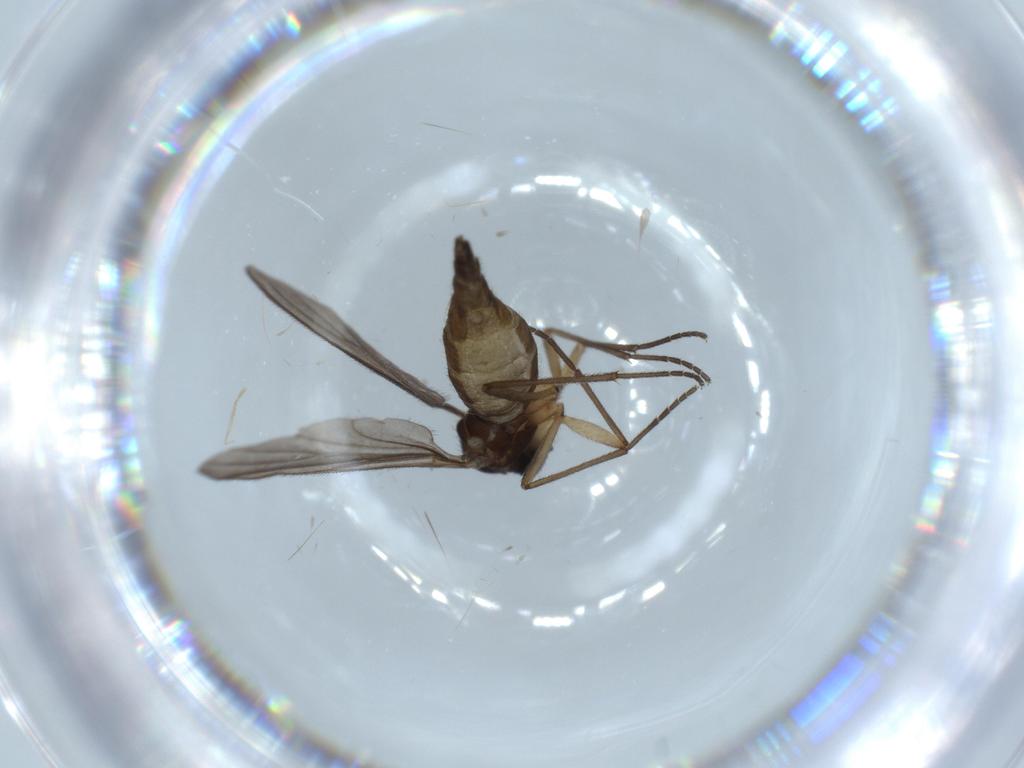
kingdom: Animalia
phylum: Arthropoda
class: Insecta
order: Diptera
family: Sciaridae
